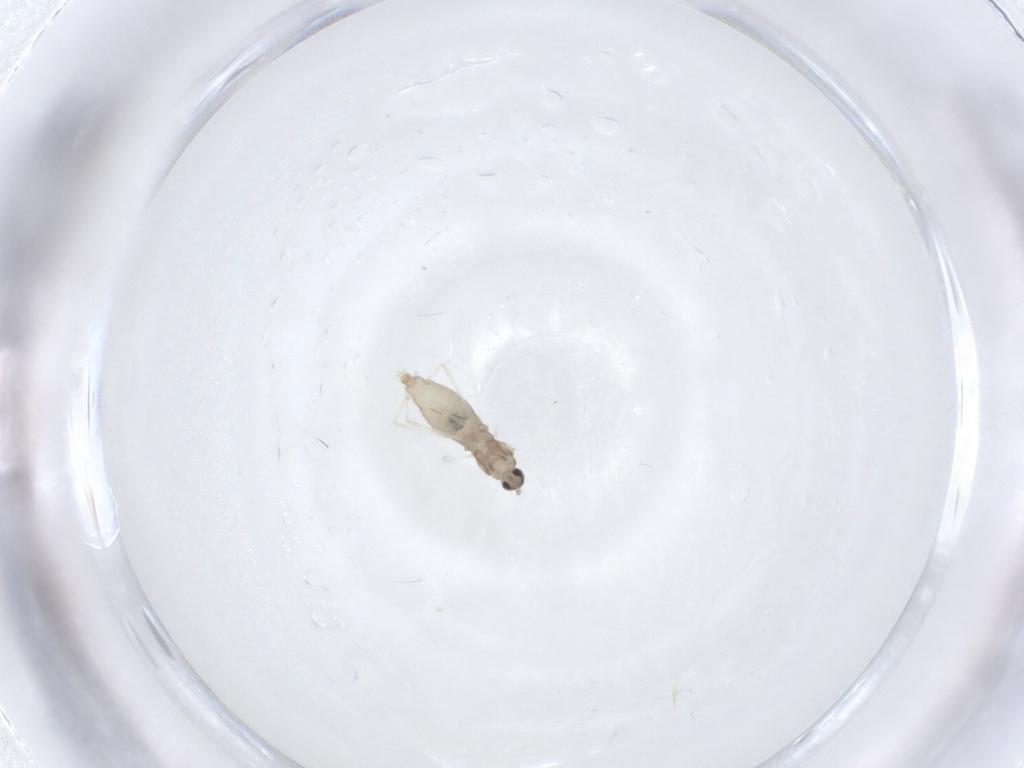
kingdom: Animalia
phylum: Arthropoda
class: Insecta
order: Diptera
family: Cecidomyiidae
